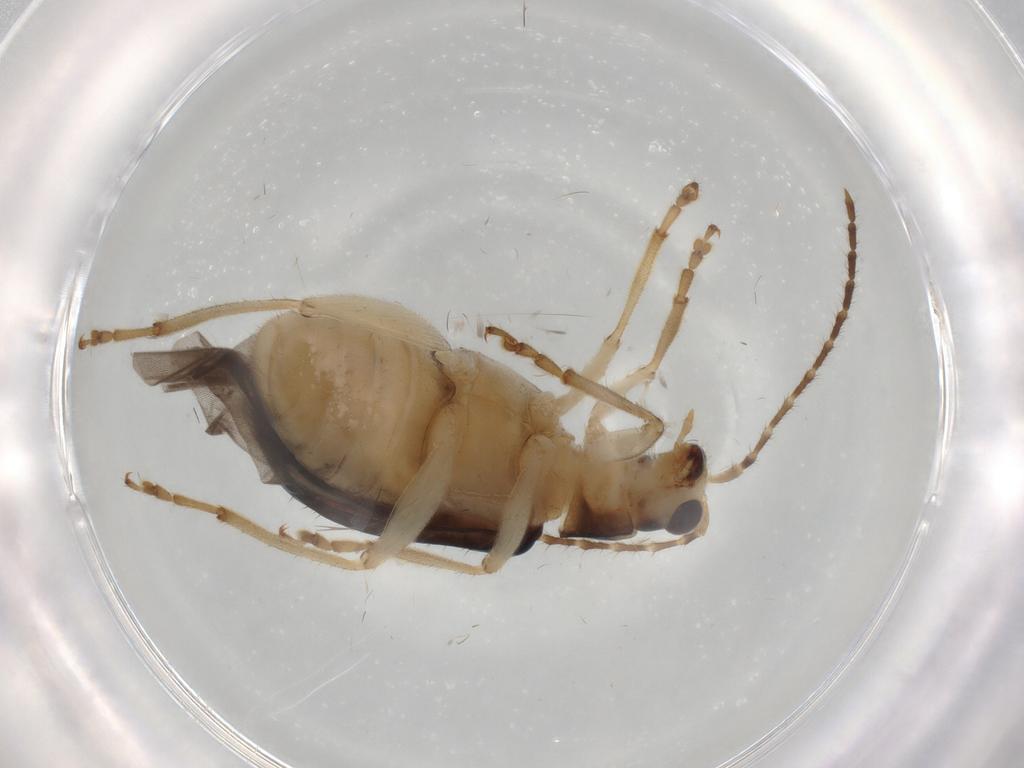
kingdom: Animalia
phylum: Arthropoda
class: Insecta
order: Coleoptera
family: Chrysomelidae
